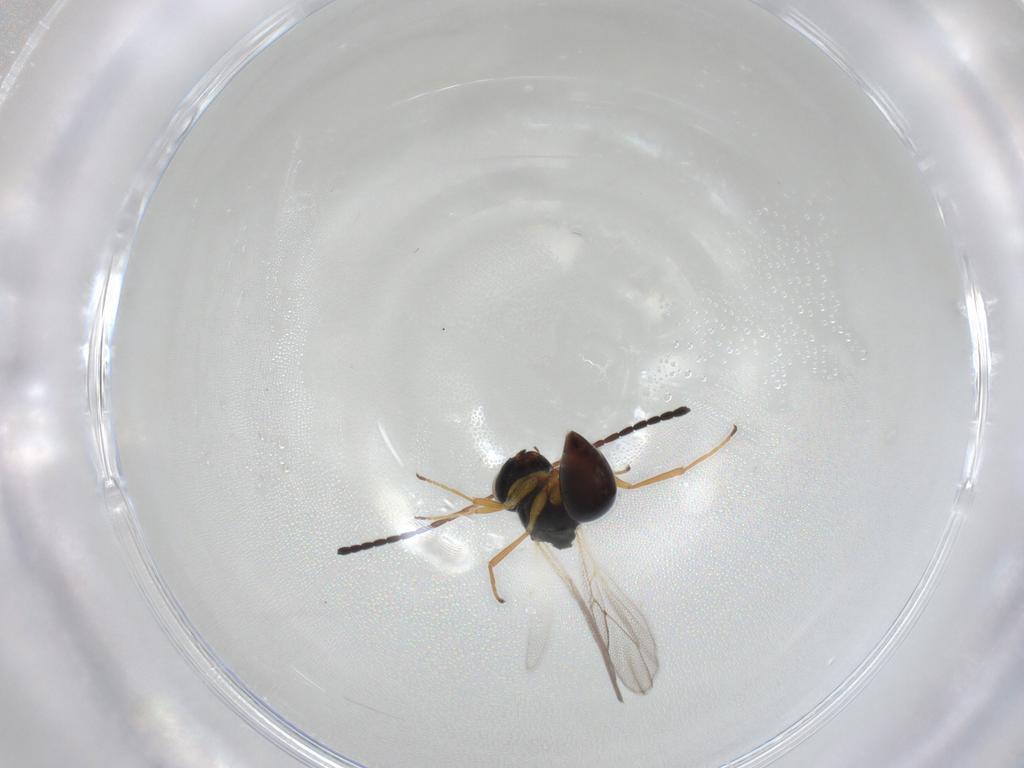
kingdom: Animalia
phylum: Arthropoda
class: Insecta
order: Hymenoptera
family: Figitidae
